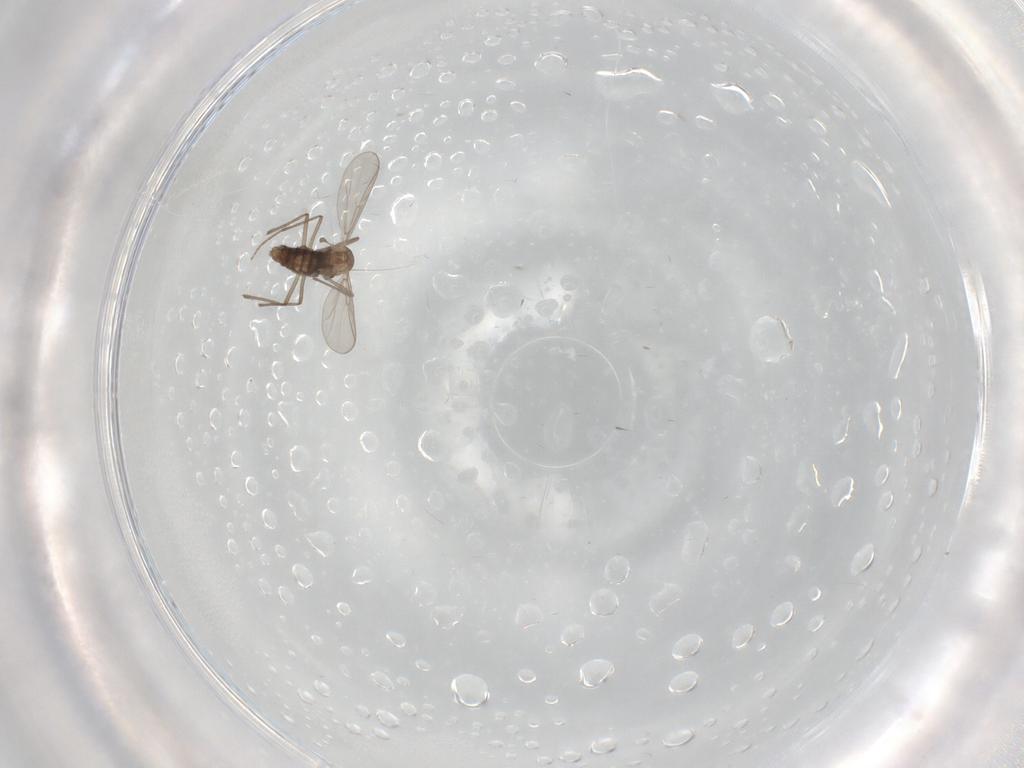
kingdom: Animalia
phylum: Arthropoda
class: Insecta
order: Diptera
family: Chironomidae
